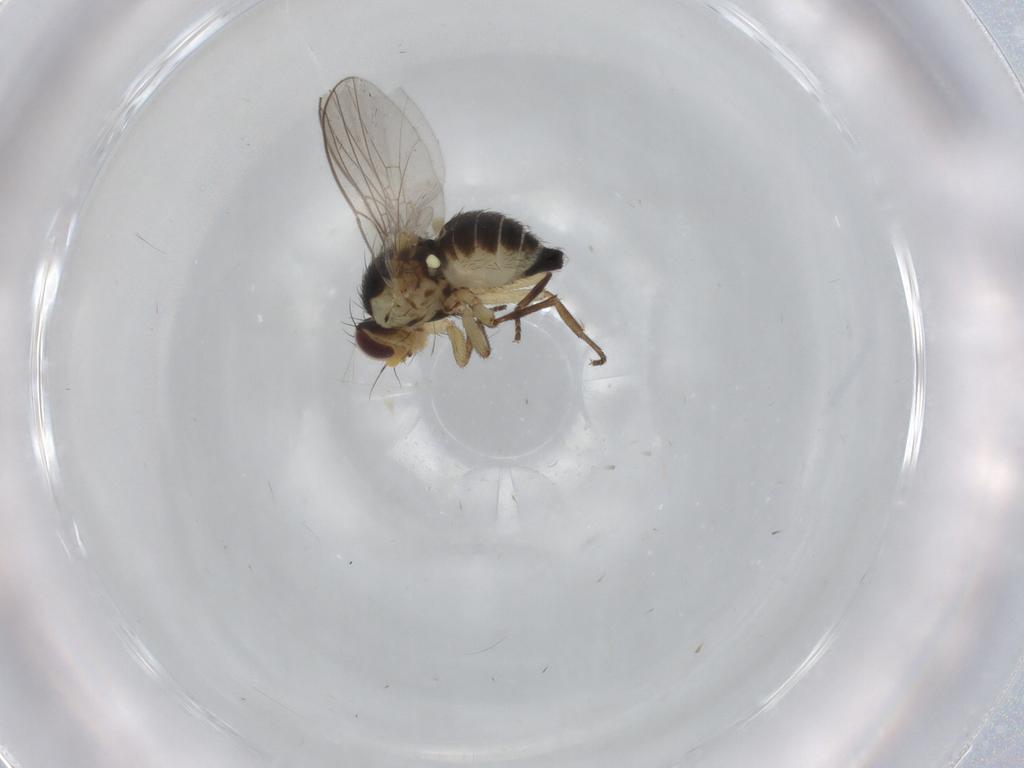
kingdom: Animalia
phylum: Arthropoda
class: Insecta
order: Diptera
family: Agromyzidae
